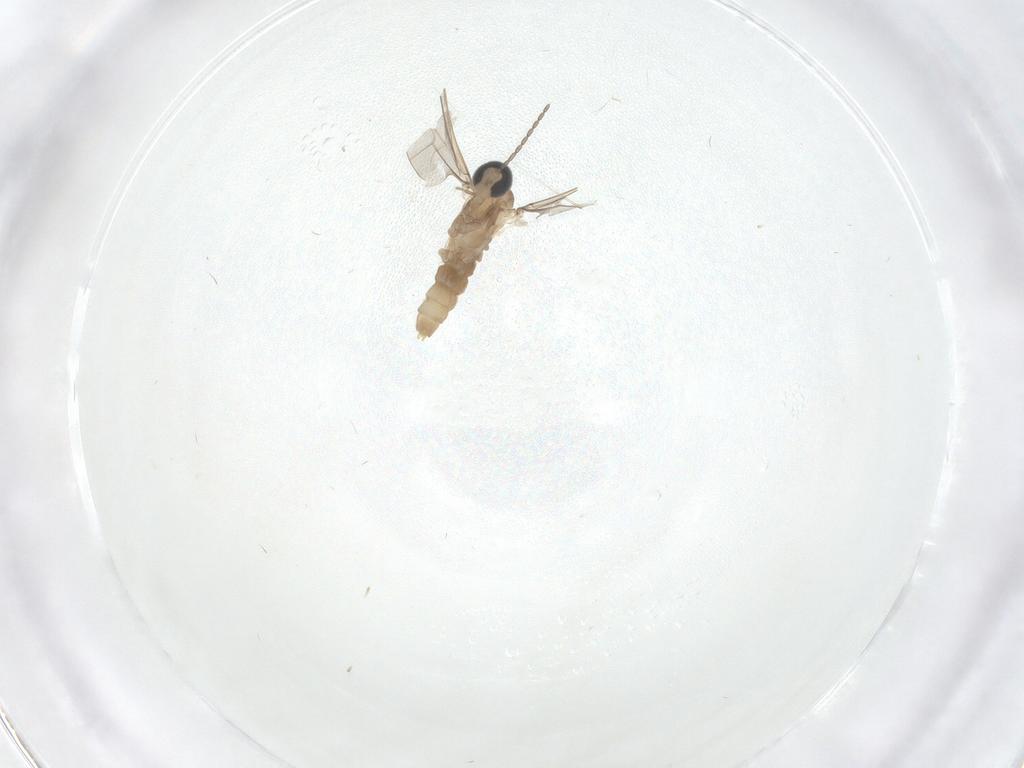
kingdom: Animalia
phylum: Arthropoda
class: Insecta
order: Diptera
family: Cecidomyiidae
